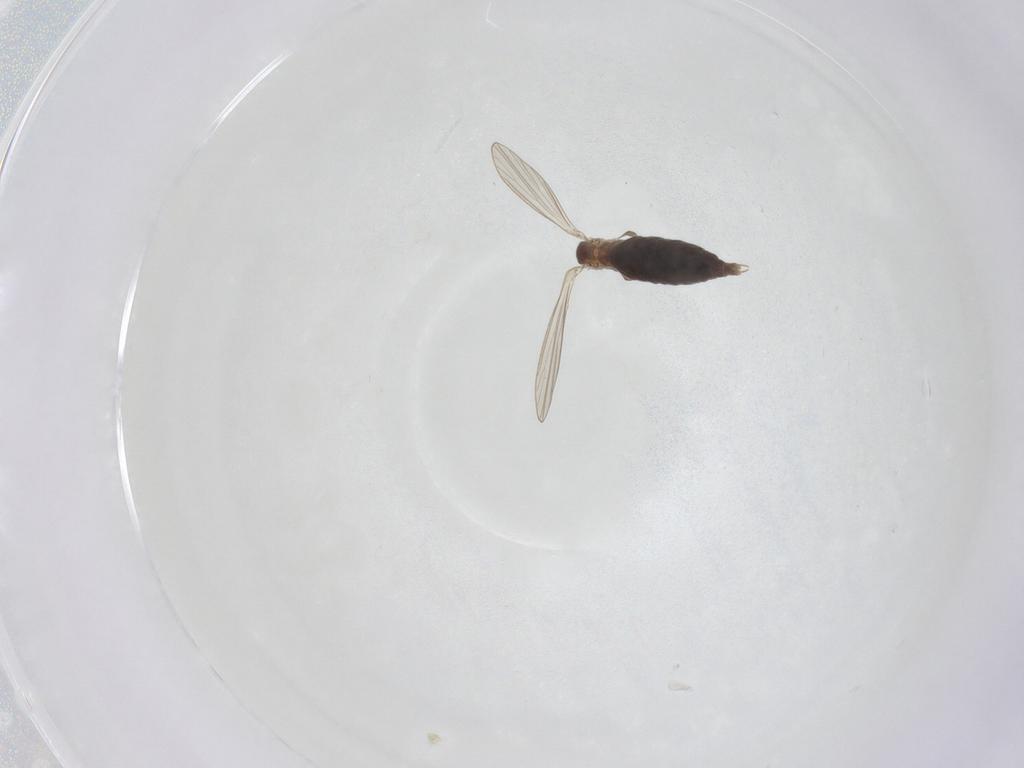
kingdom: Animalia
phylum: Arthropoda
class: Insecta
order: Diptera
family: Psychodidae
